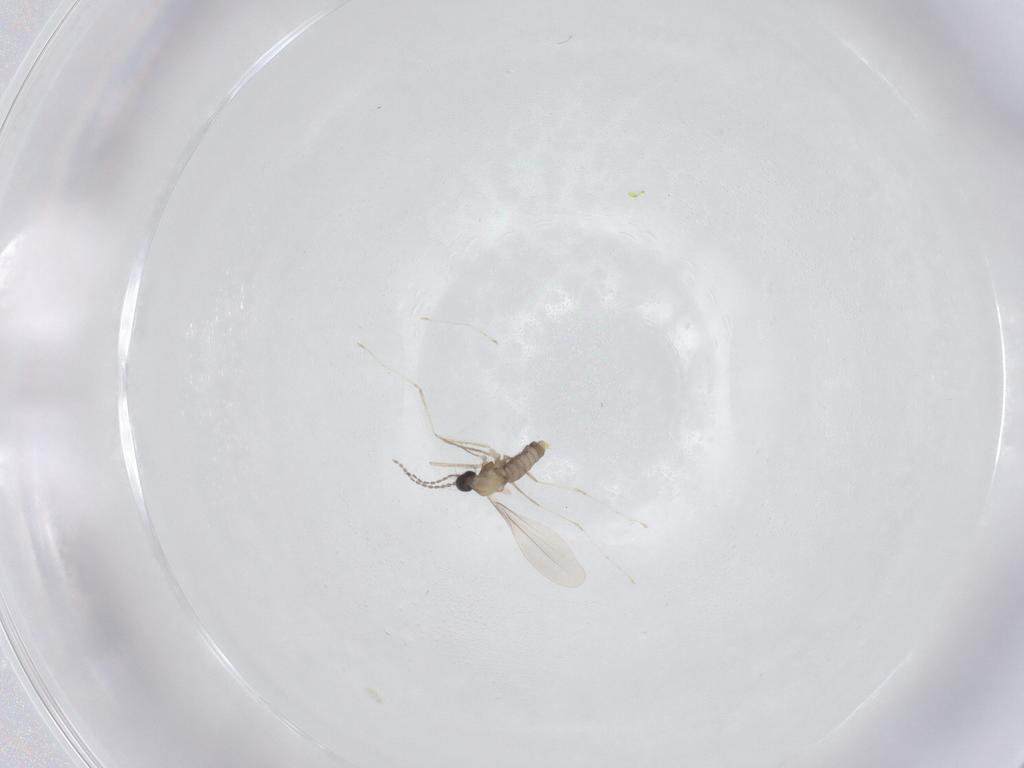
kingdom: Animalia
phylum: Arthropoda
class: Insecta
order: Diptera
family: Cecidomyiidae
